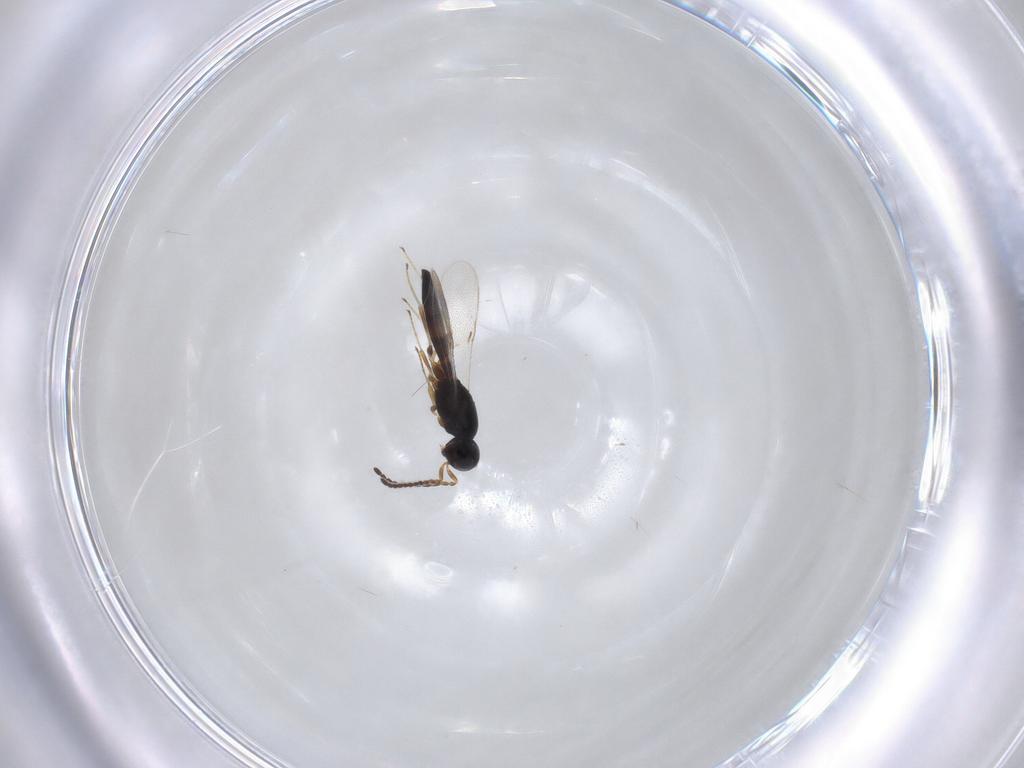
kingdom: Animalia
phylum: Arthropoda
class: Insecta
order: Hymenoptera
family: Scelionidae
